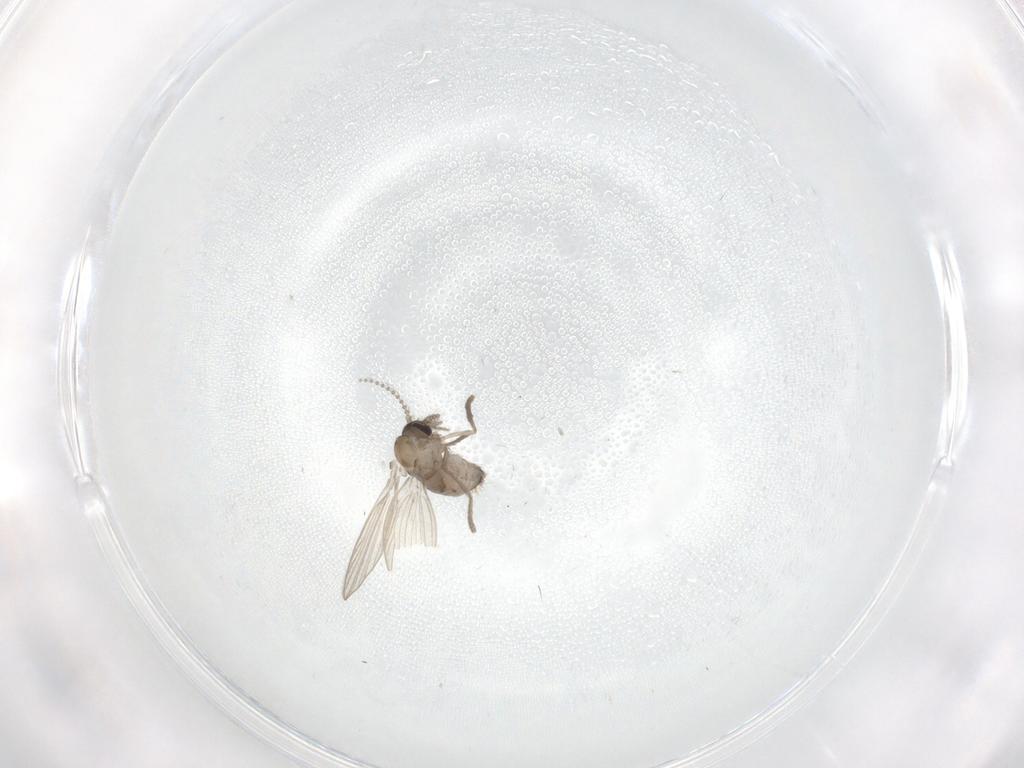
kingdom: Animalia
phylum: Arthropoda
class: Insecta
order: Diptera
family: Psychodidae
